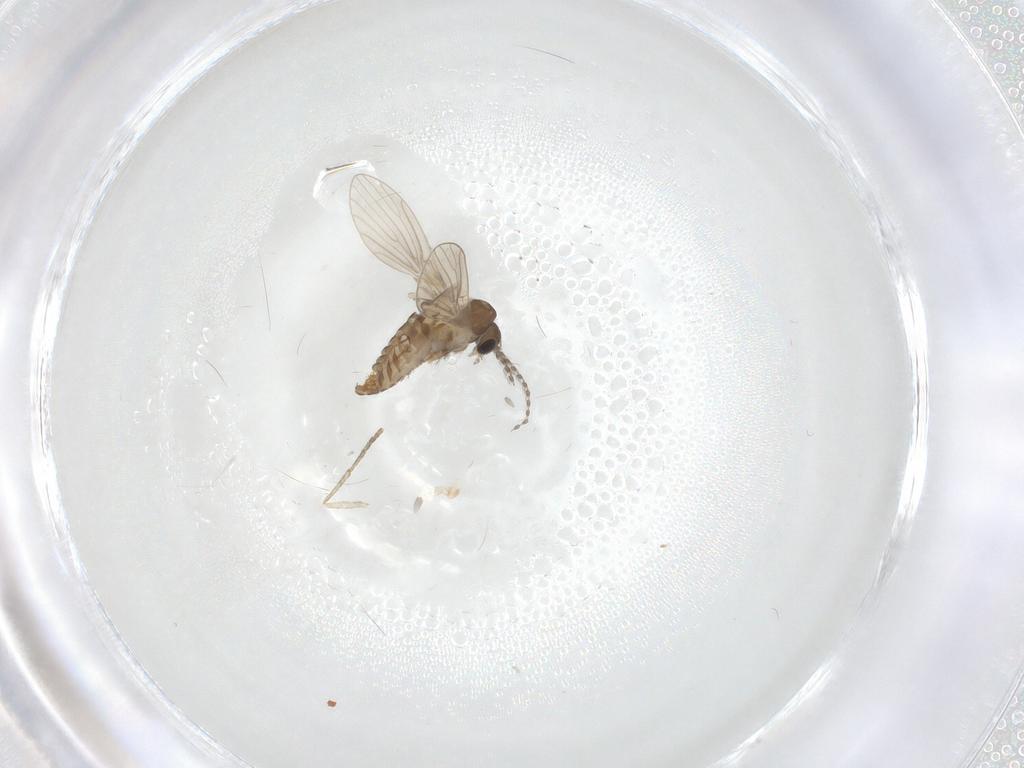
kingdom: Animalia
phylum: Arthropoda
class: Insecta
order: Diptera
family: Psychodidae
